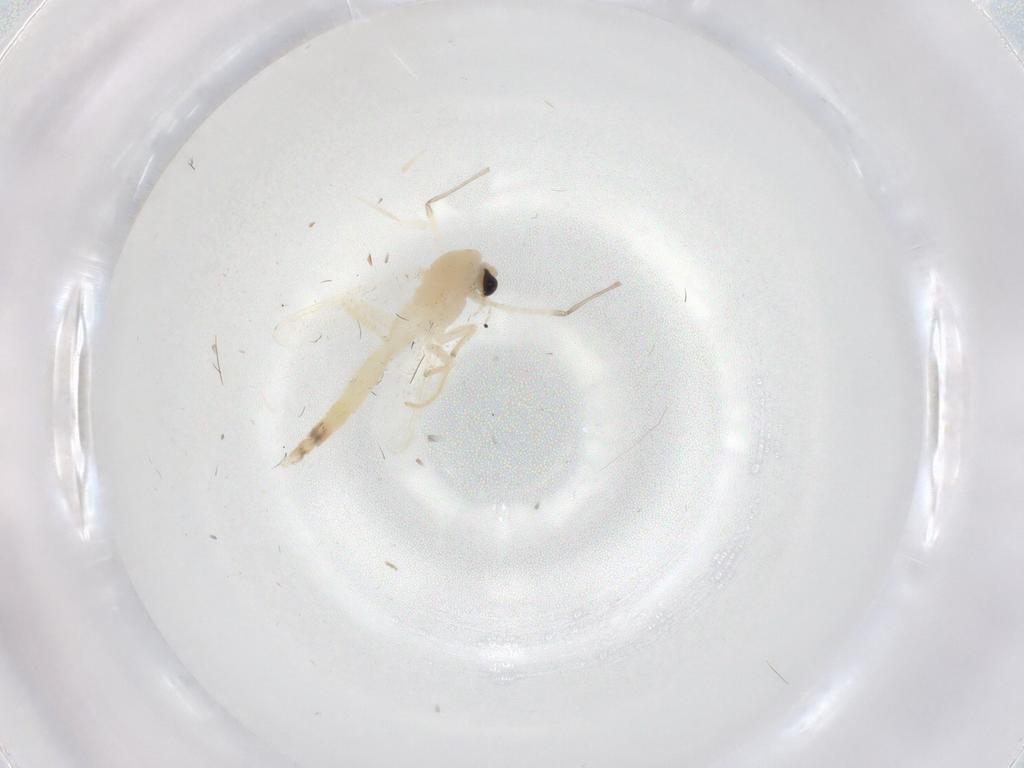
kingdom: Animalia
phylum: Arthropoda
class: Insecta
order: Diptera
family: Chironomidae
